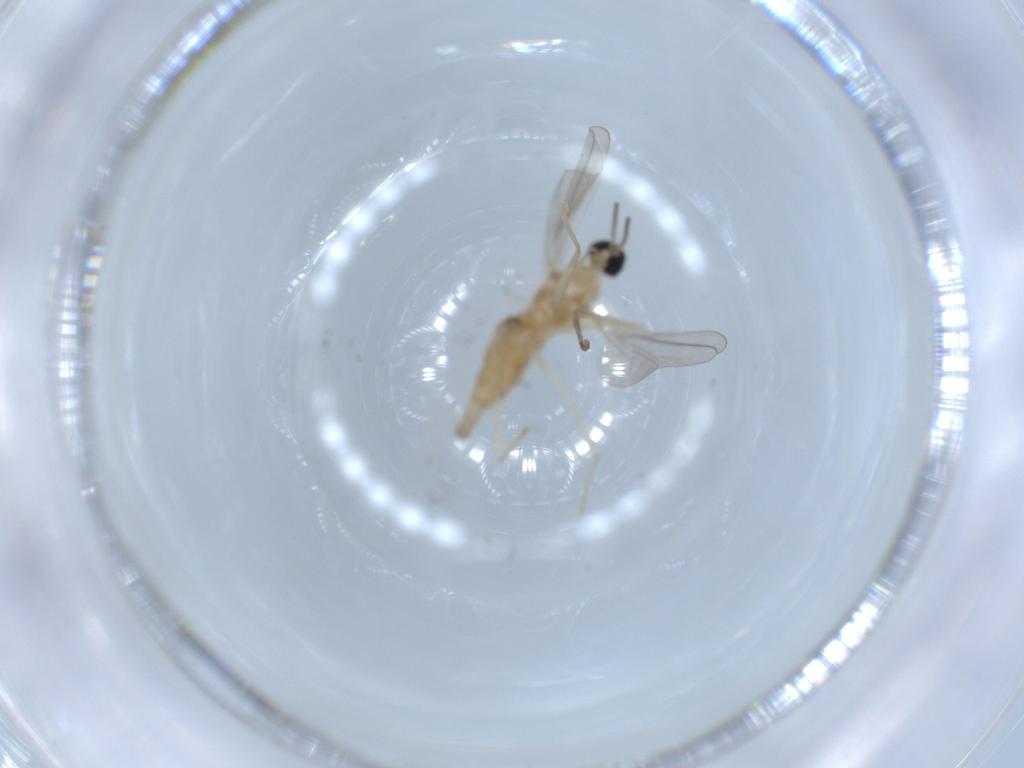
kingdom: Animalia
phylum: Arthropoda
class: Insecta
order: Diptera
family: Cecidomyiidae
